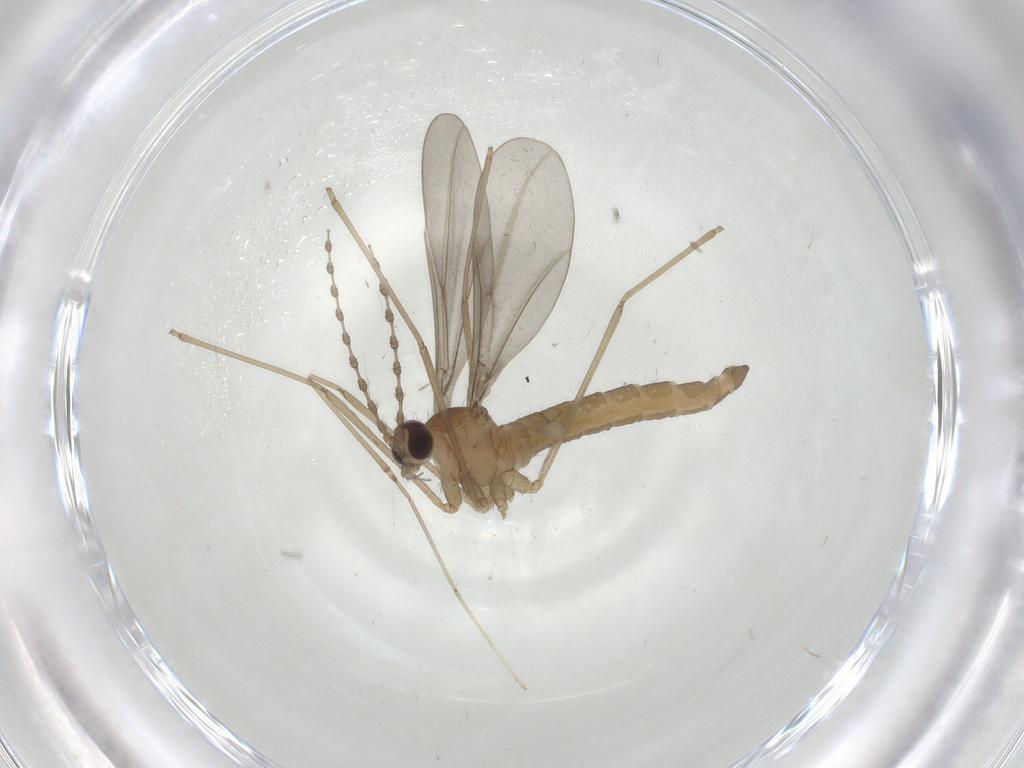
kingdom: Animalia
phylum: Arthropoda
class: Insecta
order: Diptera
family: Cecidomyiidae
